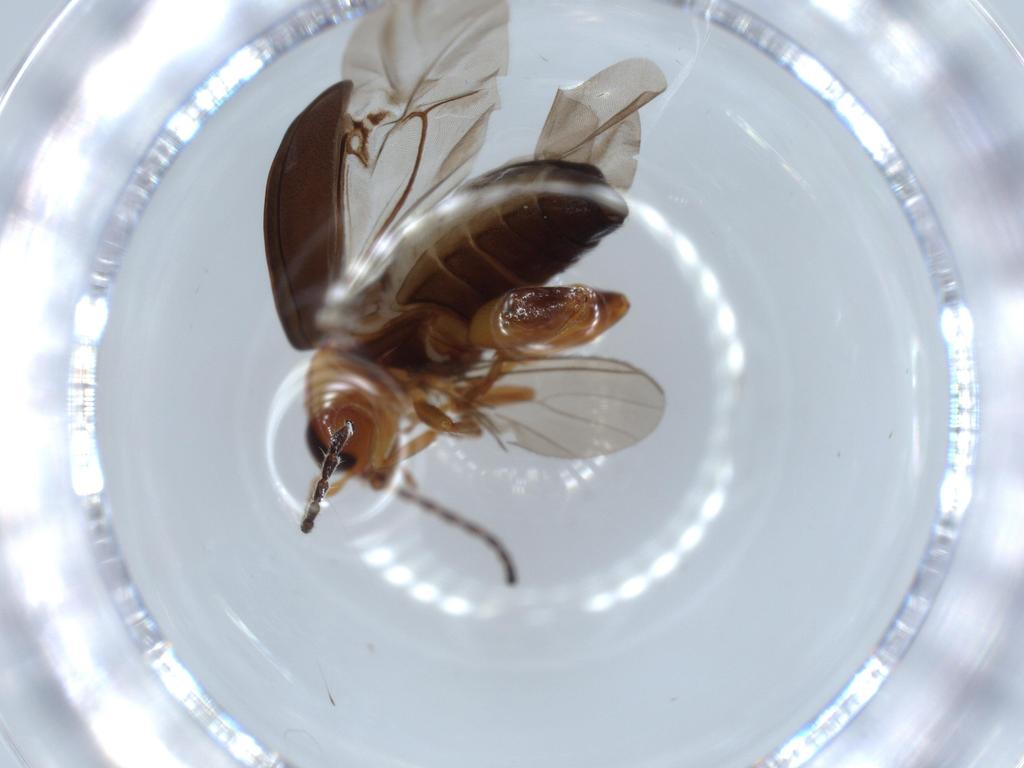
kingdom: Animalia
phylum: Arthropoda
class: Insecta
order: Coleoptera
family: Chrysomelidae
